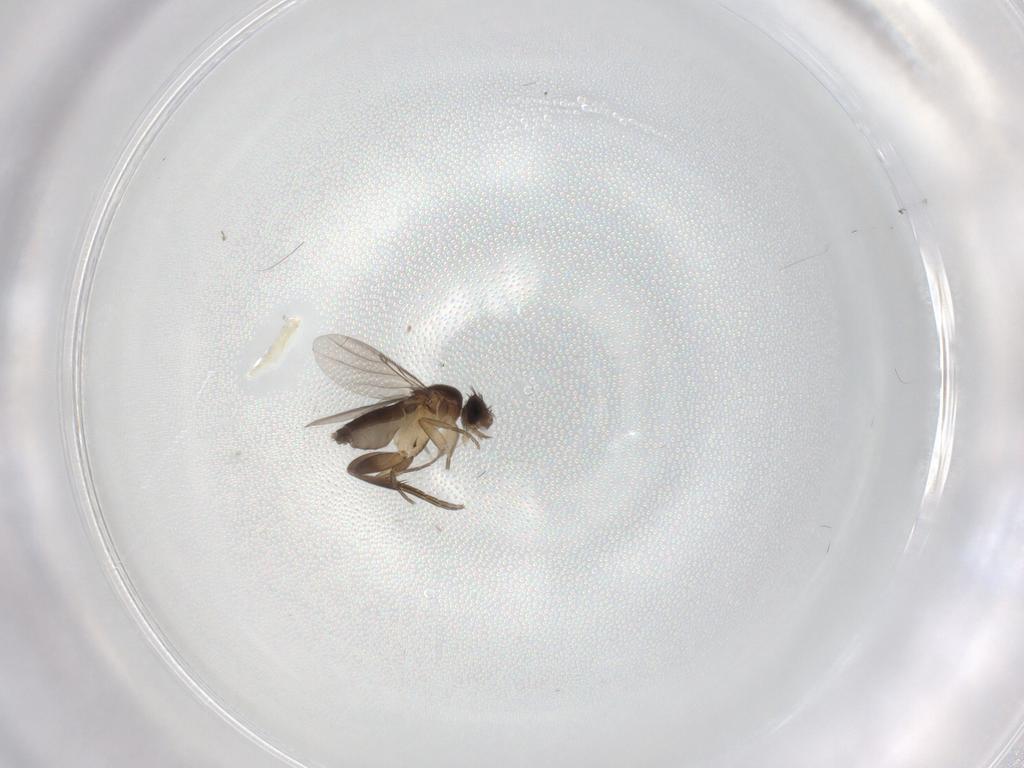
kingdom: Animalia
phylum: Arthropoda
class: Insecta
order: Diptera
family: Phoridae
